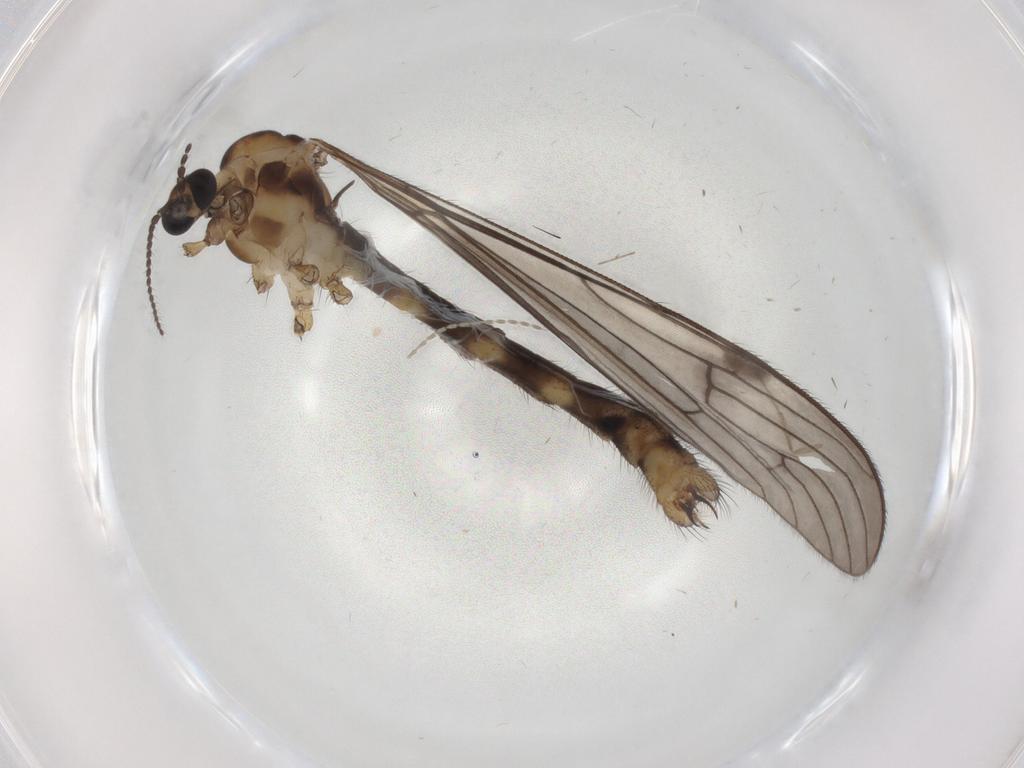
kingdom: Animalia
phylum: Arthropoda
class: Insecta
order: Diptera
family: Limoniidae
